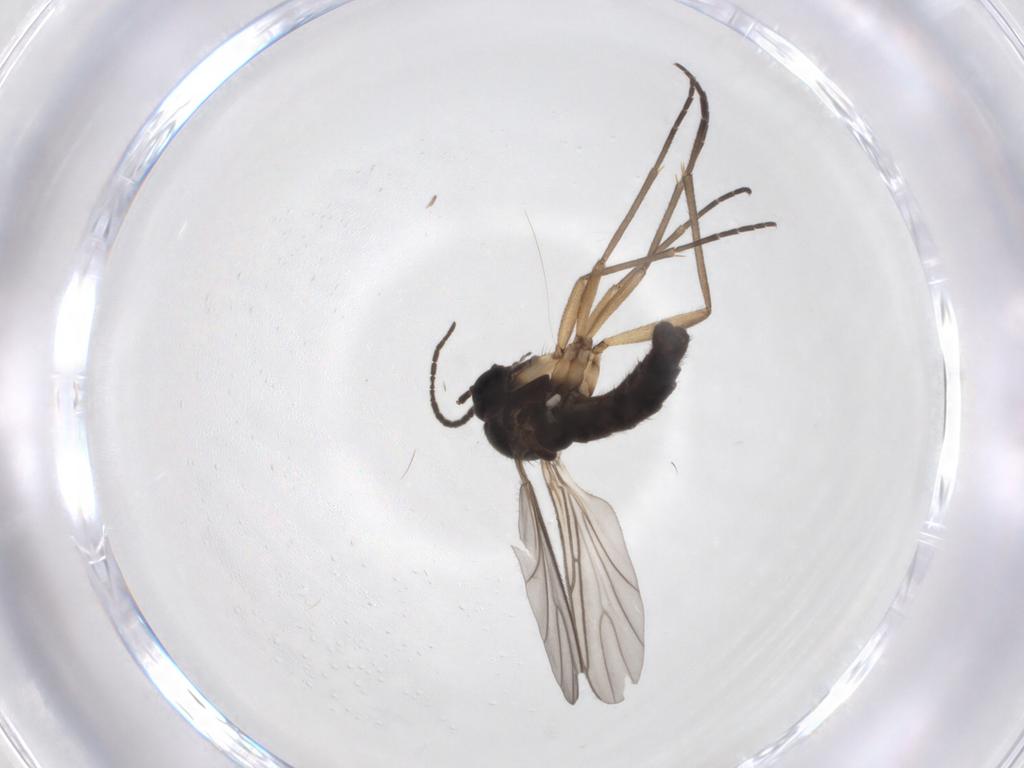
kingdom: Animalia
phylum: Arthropoda
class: Insecta
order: Diptera
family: Sciaridae
